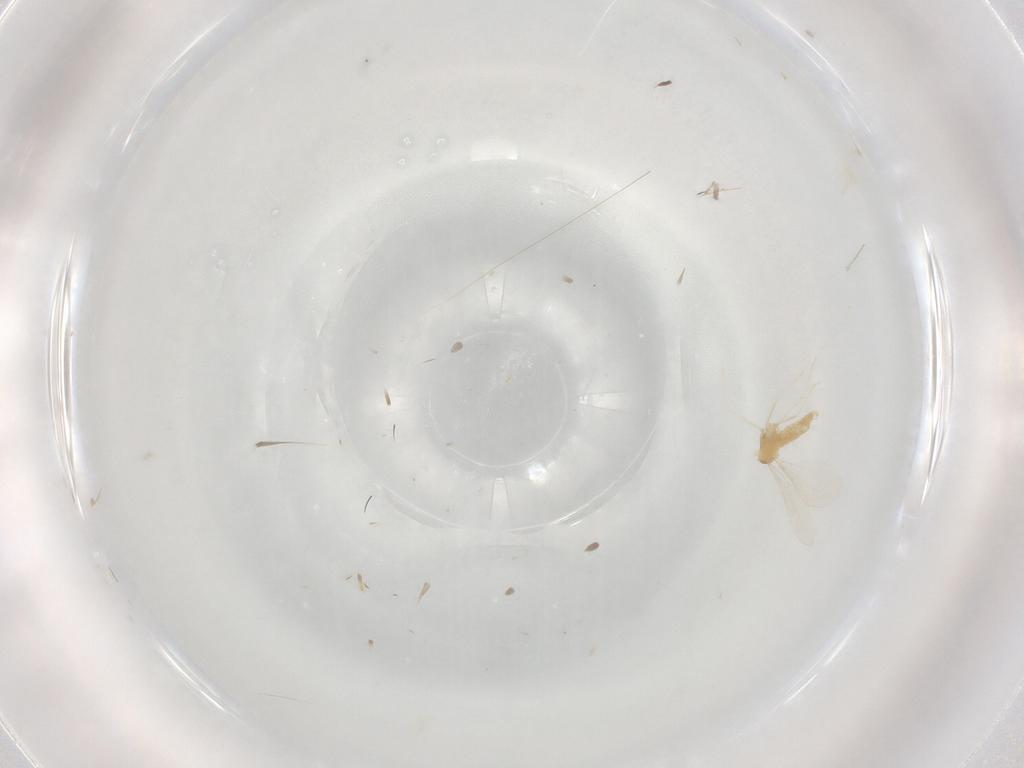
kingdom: Animalia
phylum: Arthropoda
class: Insecta
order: Diptera
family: Cecidomyiidae
